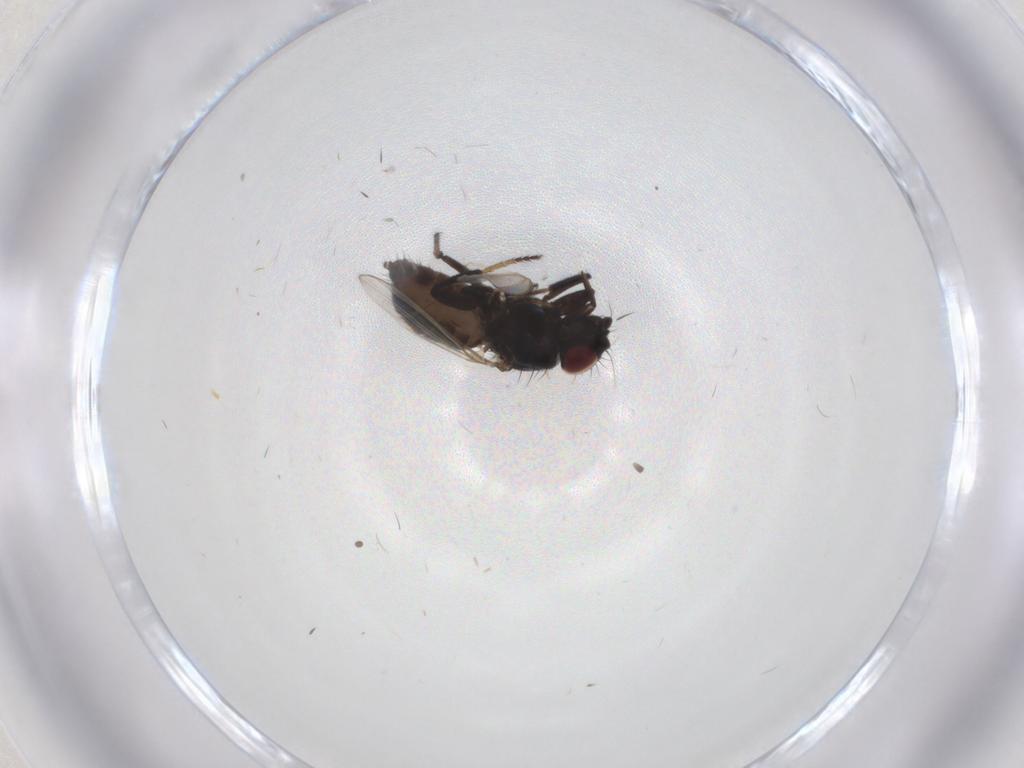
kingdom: Animalia
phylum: Arthropoda
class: Insecta
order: Diptera
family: Milichiidae
